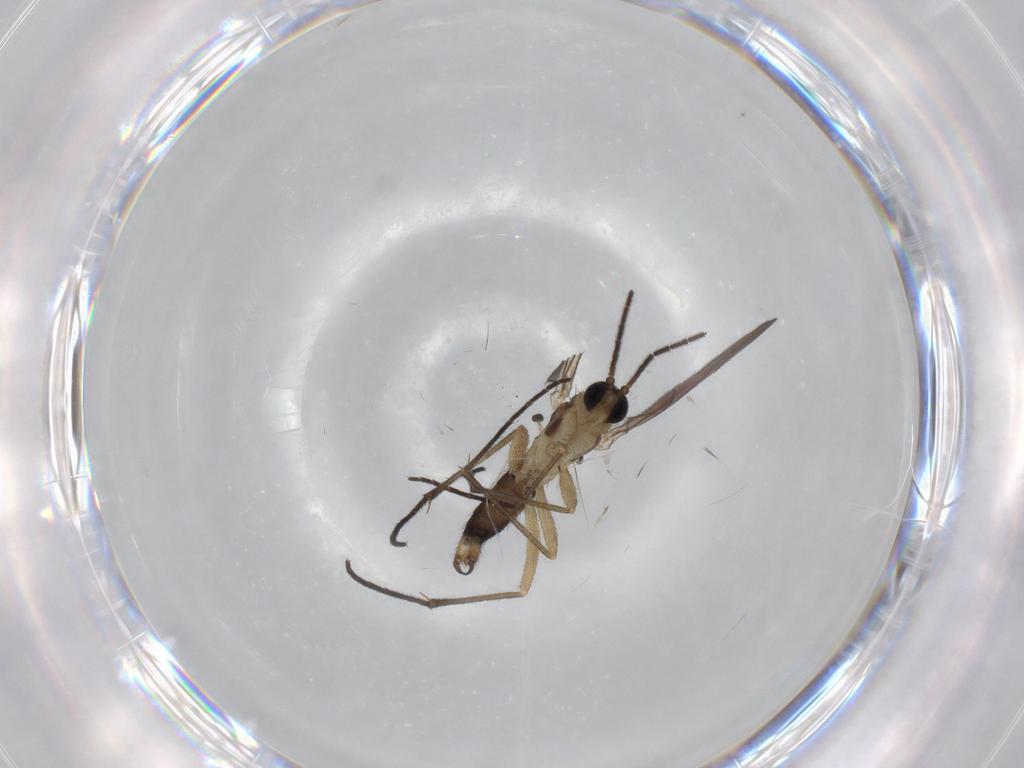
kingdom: Animalia
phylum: Arthropoda
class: Insecta
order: Diptera
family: Sciaridae
